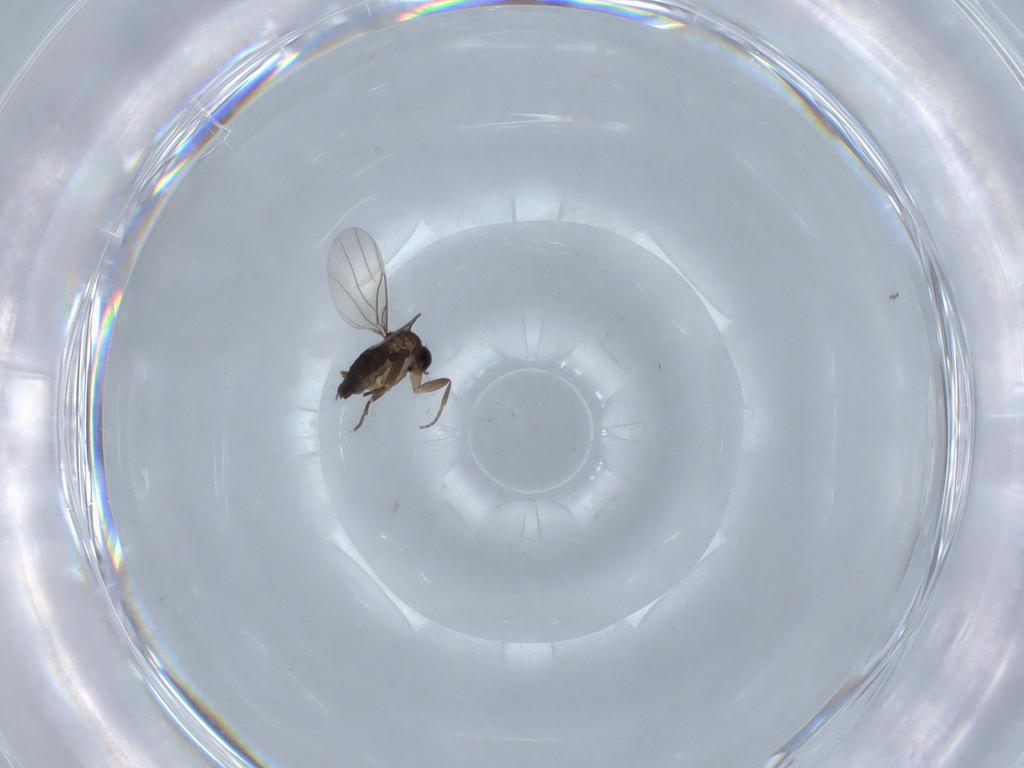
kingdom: Animalia
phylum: Arthropoda
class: Insecta
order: Diptera
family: Phoridae
